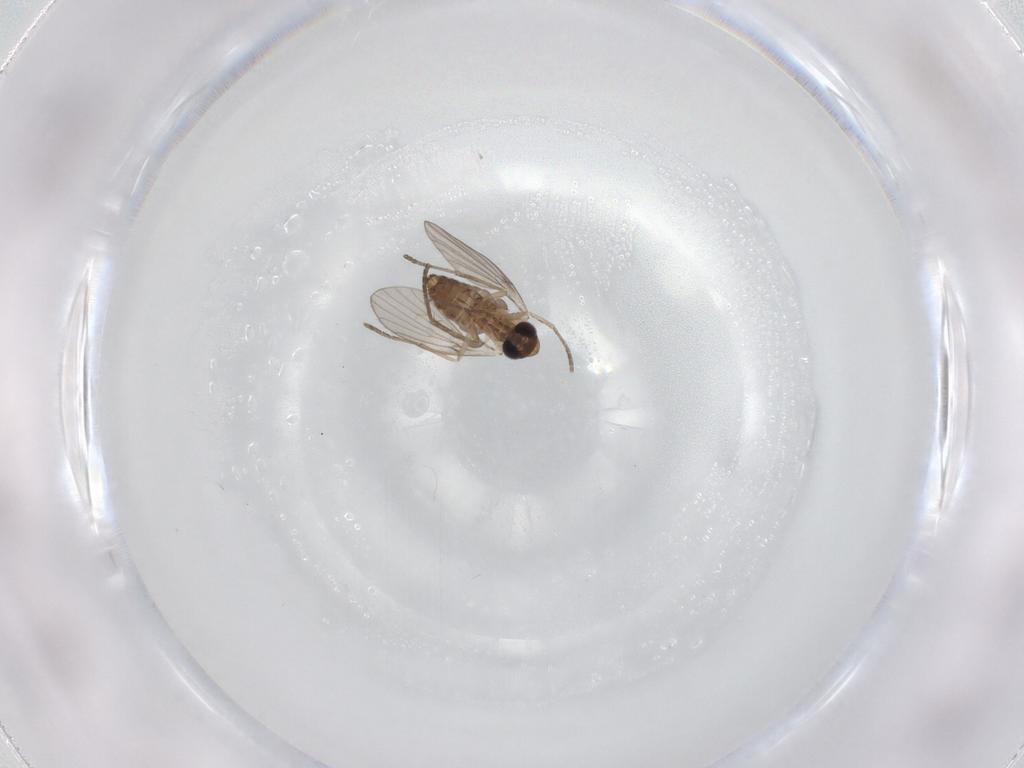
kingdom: Animalia
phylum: Arthropoda
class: Insecta
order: Diptera
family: Psychodidae
